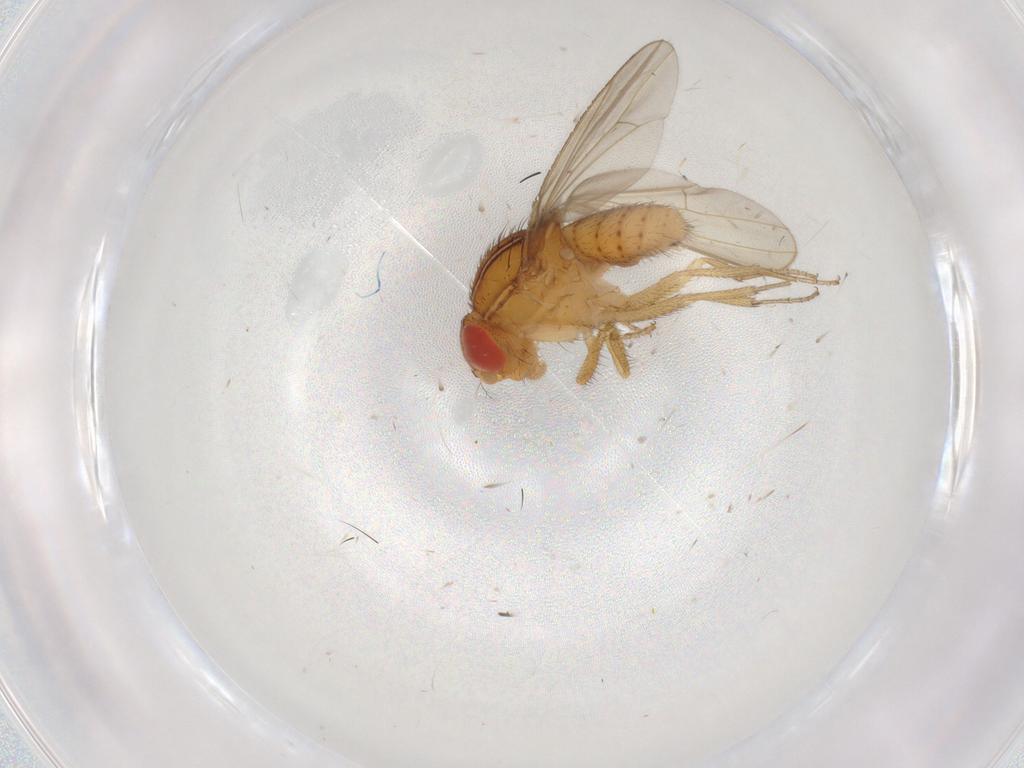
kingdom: Animalia
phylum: Arthropoda
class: Insecta
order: Diptera
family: Drosophilidae
